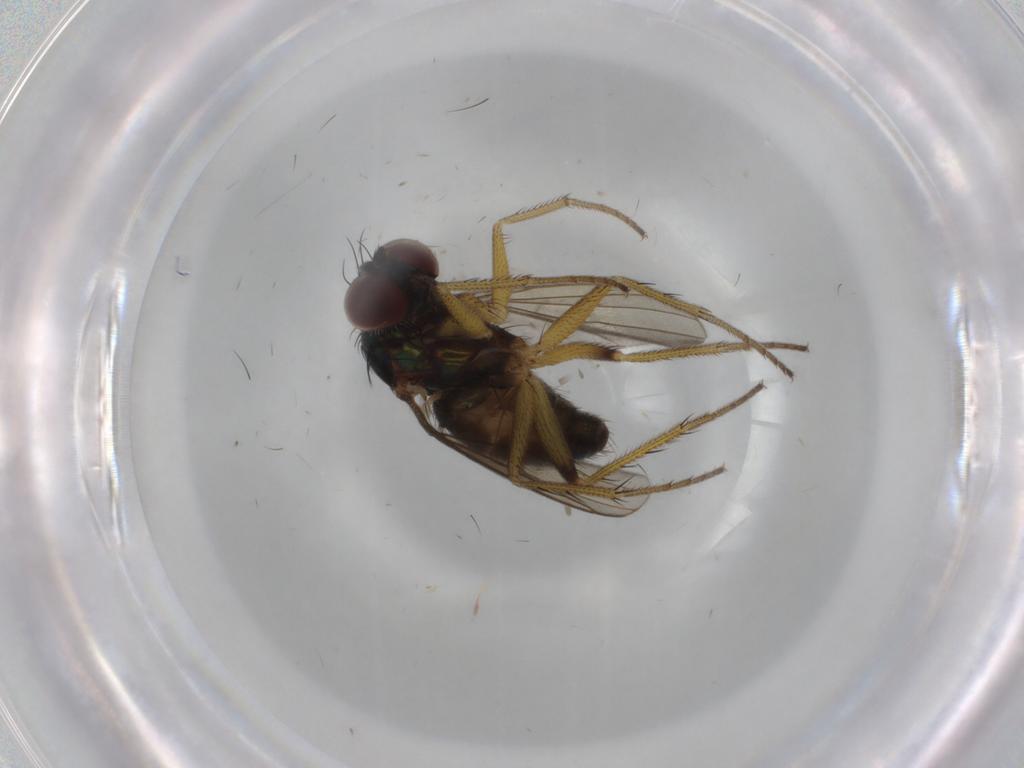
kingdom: Animalia
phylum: Arthropoda
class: Insecta
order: Diptera
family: Dolichopodidae
